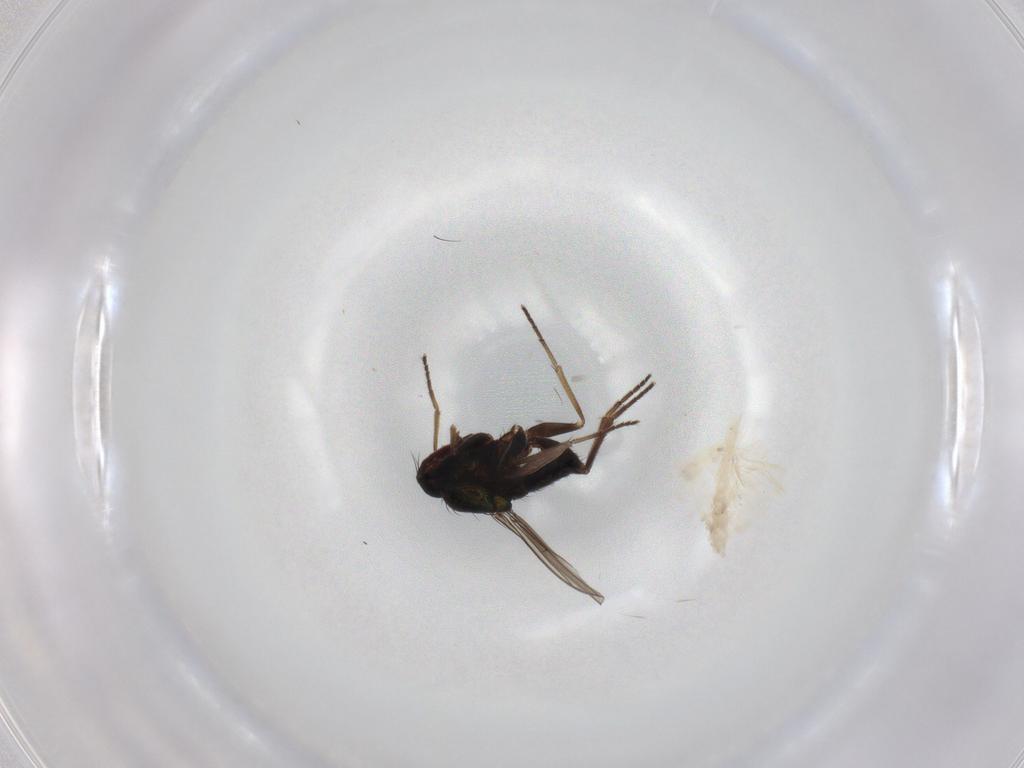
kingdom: Animalia
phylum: Arthropoda
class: Insecta
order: Diptera
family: Dolichopodidae
